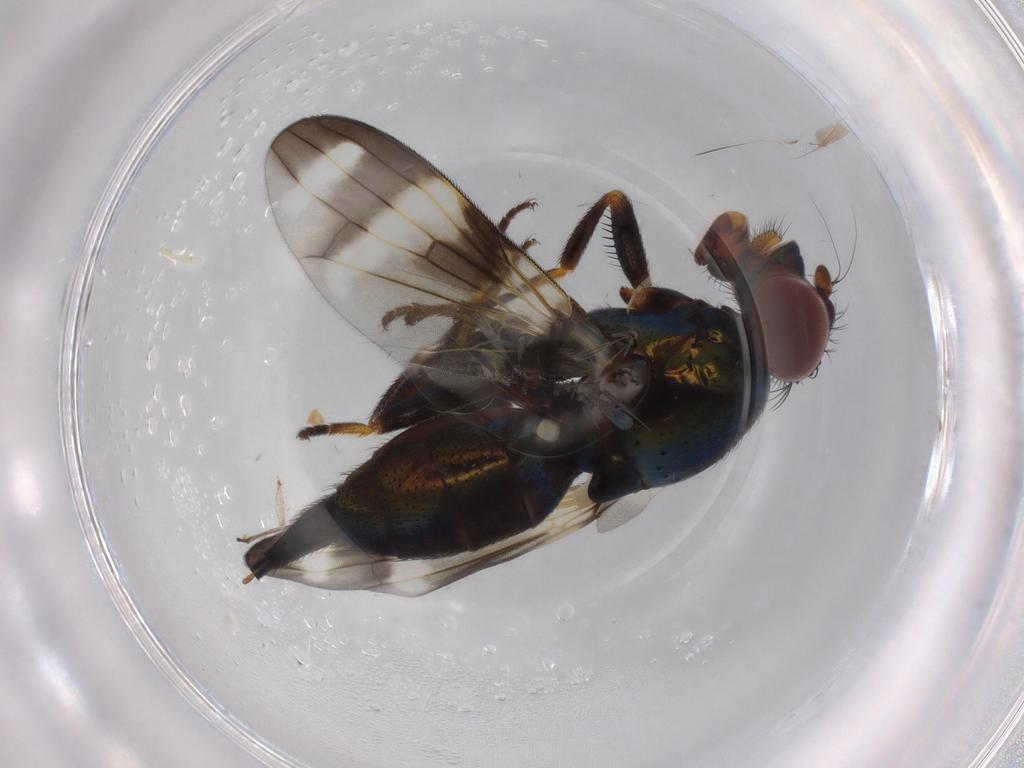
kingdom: Animalia
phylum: Arthropoda
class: Insecta
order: Diptera
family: Ulidiidae
